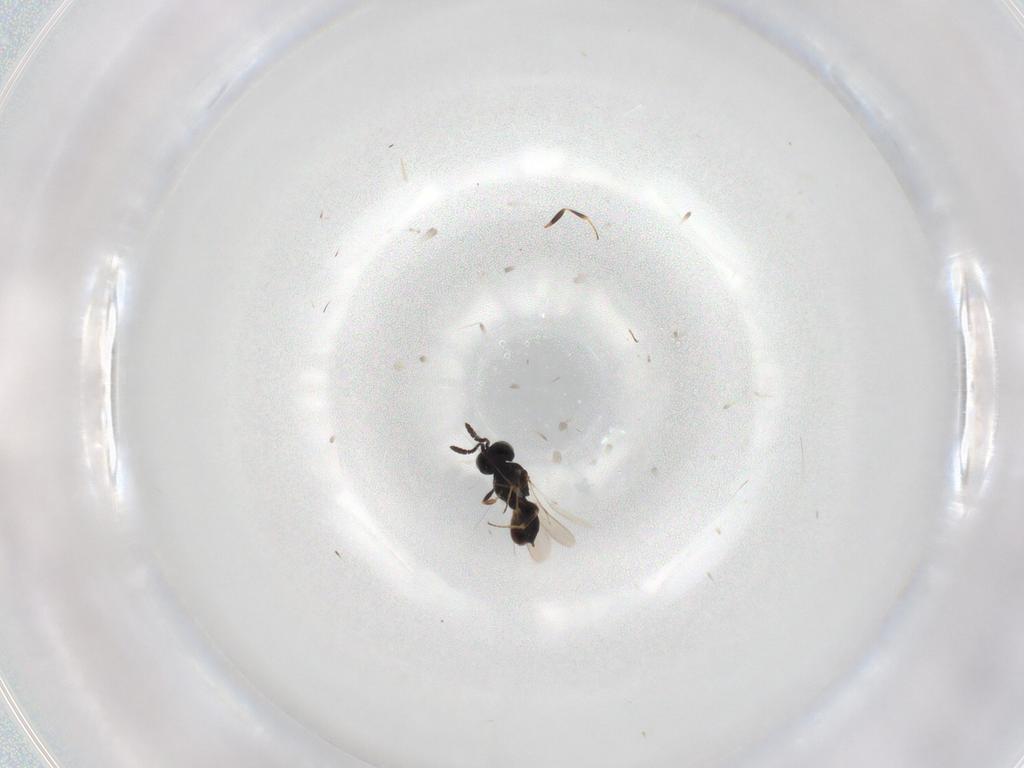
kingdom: Animalia
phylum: Arthropoda
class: Insecta
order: Hymenoptera
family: Scelionidae
